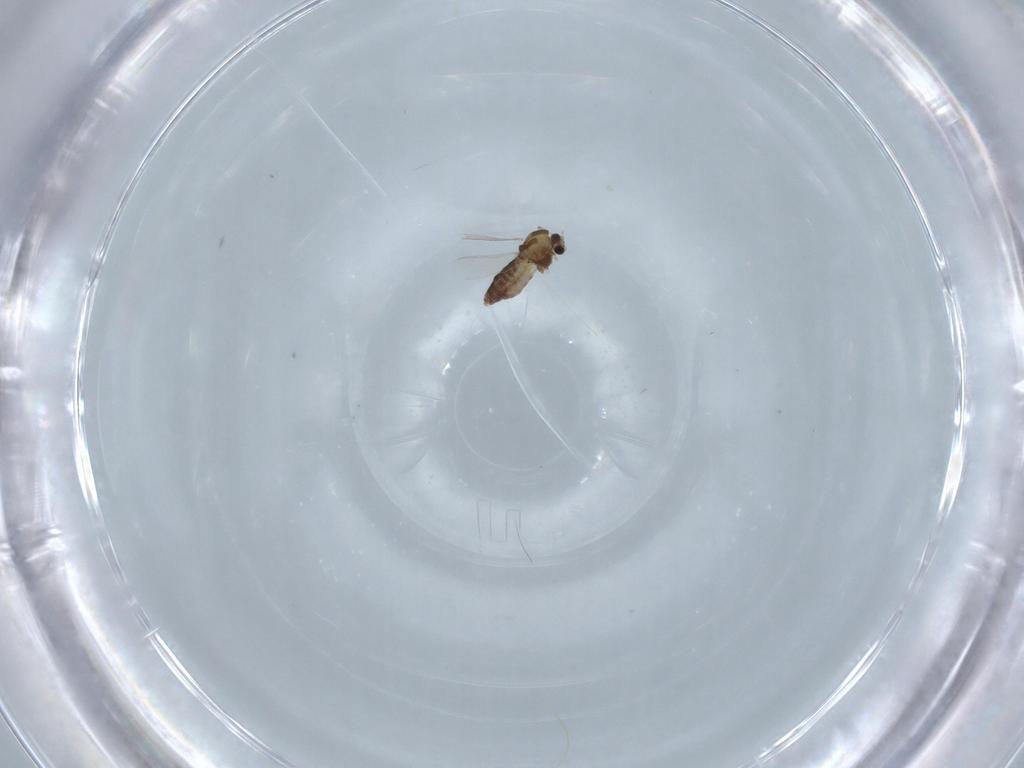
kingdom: Animalia
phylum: Arthropoda
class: Insecta
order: Diptera
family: Chironomidae
